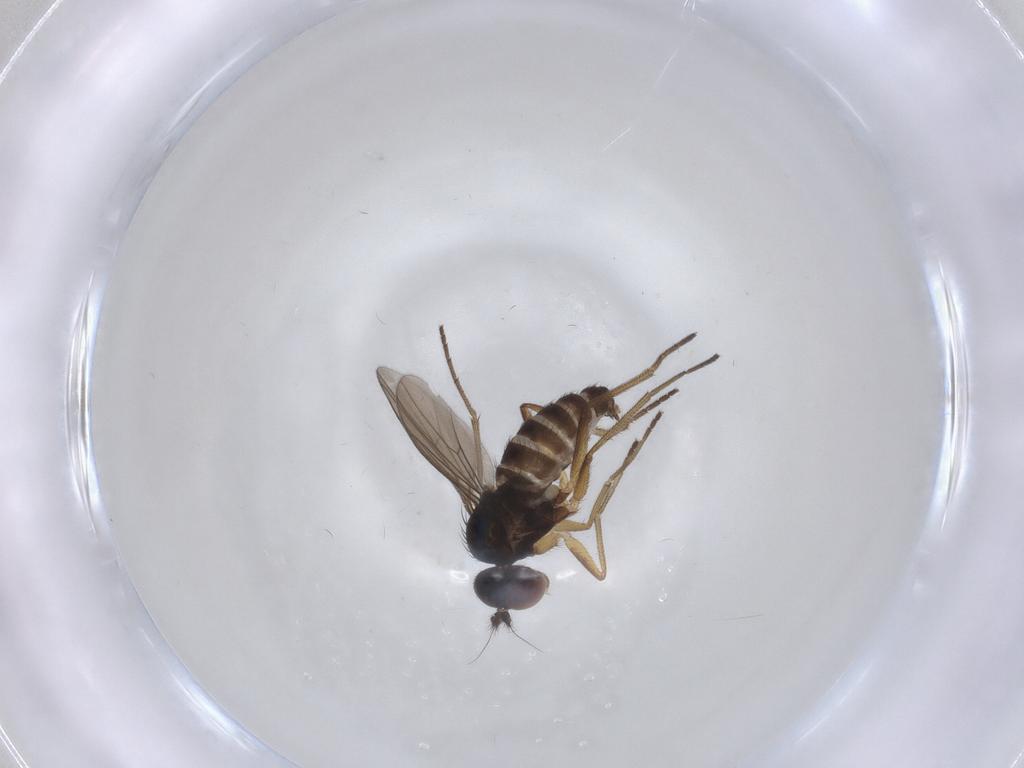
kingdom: Animalia
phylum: Arthropoda
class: Insecta
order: Diptera
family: Dolichopodidae
